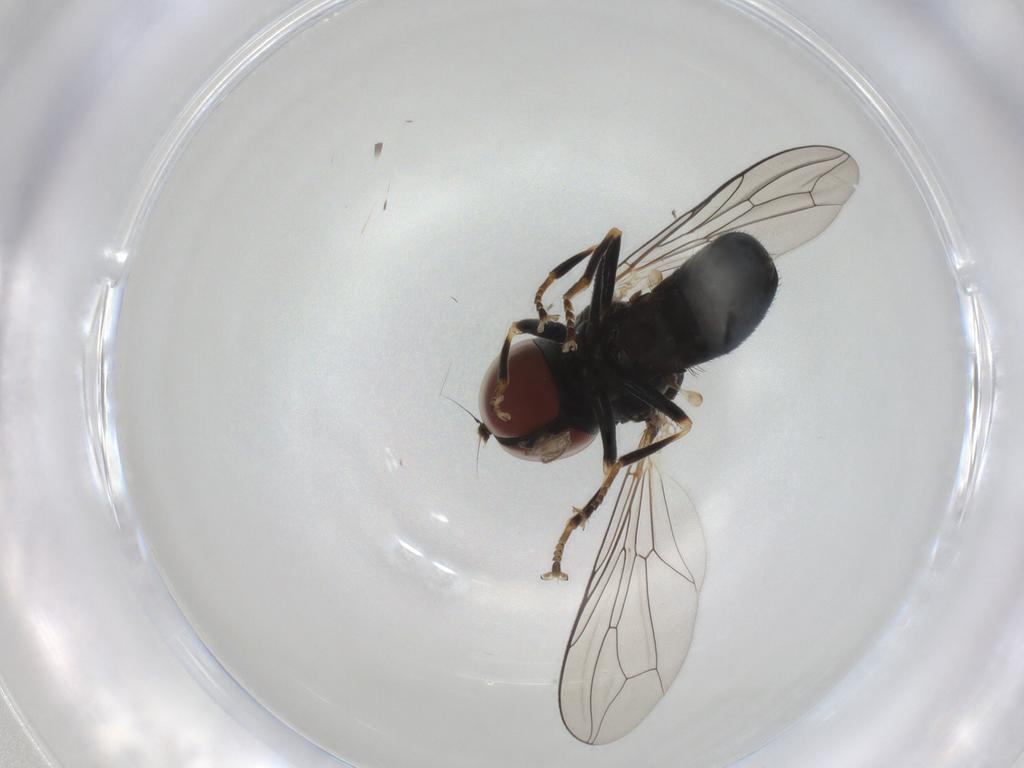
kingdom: Animalia
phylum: Arthropoda
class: Insecta
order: Diptera
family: Pipunculidae
